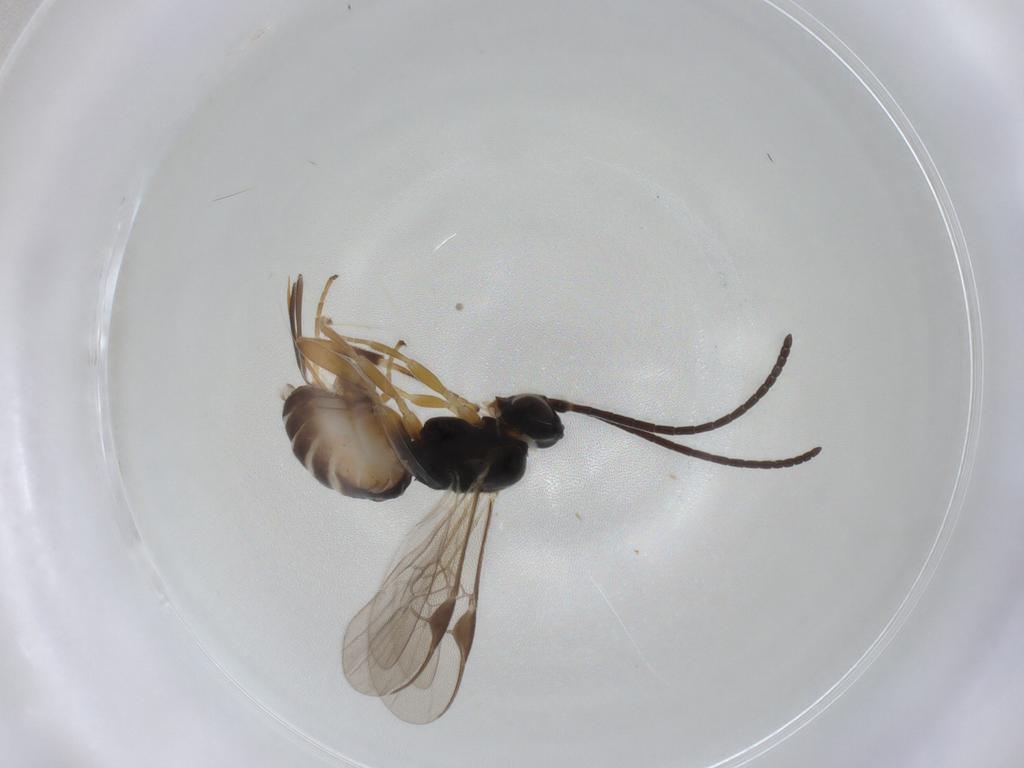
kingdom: Animalia
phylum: Arthropoda
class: Insecta
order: Hymenoptera
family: Braconidae
